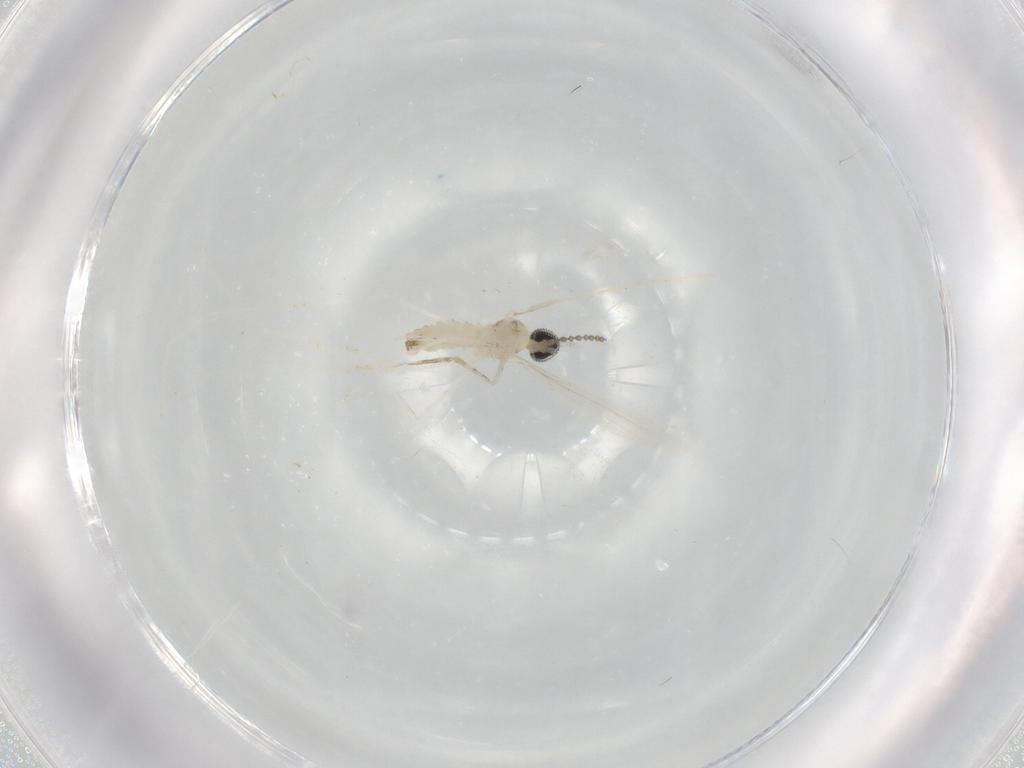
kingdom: Animalia
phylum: Arthropoda
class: Insecta
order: Diptera
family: Cecidomyiidae
